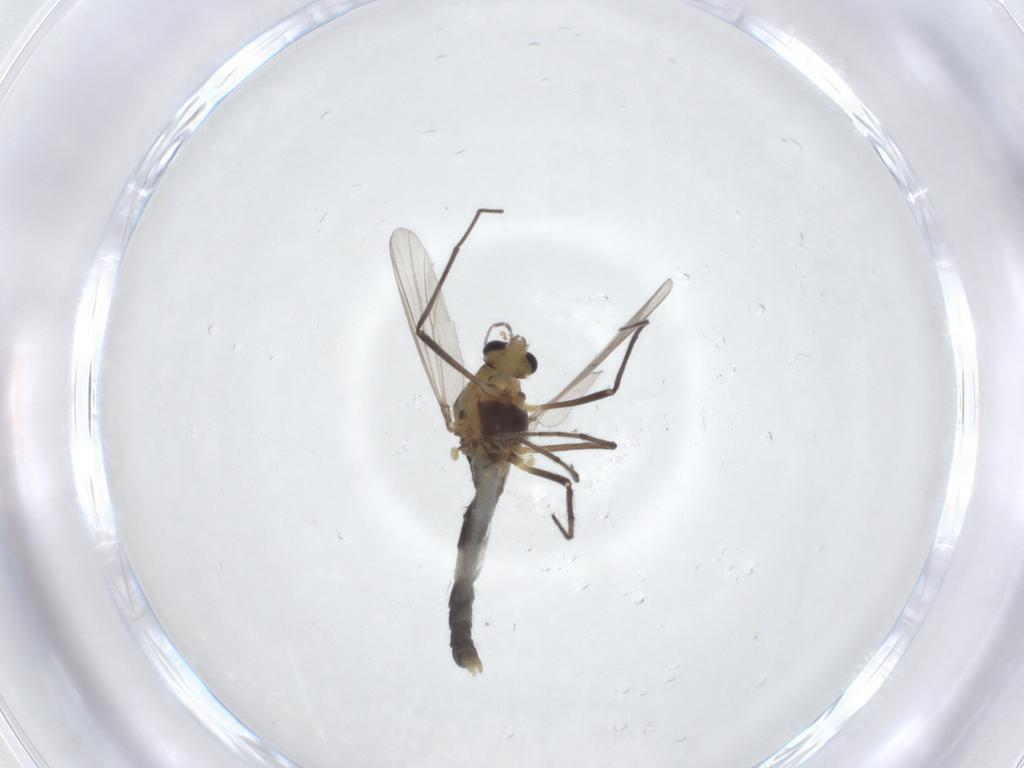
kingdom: Animalia
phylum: Arthropoda
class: Insecta
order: Diptera
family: Chironomidae
